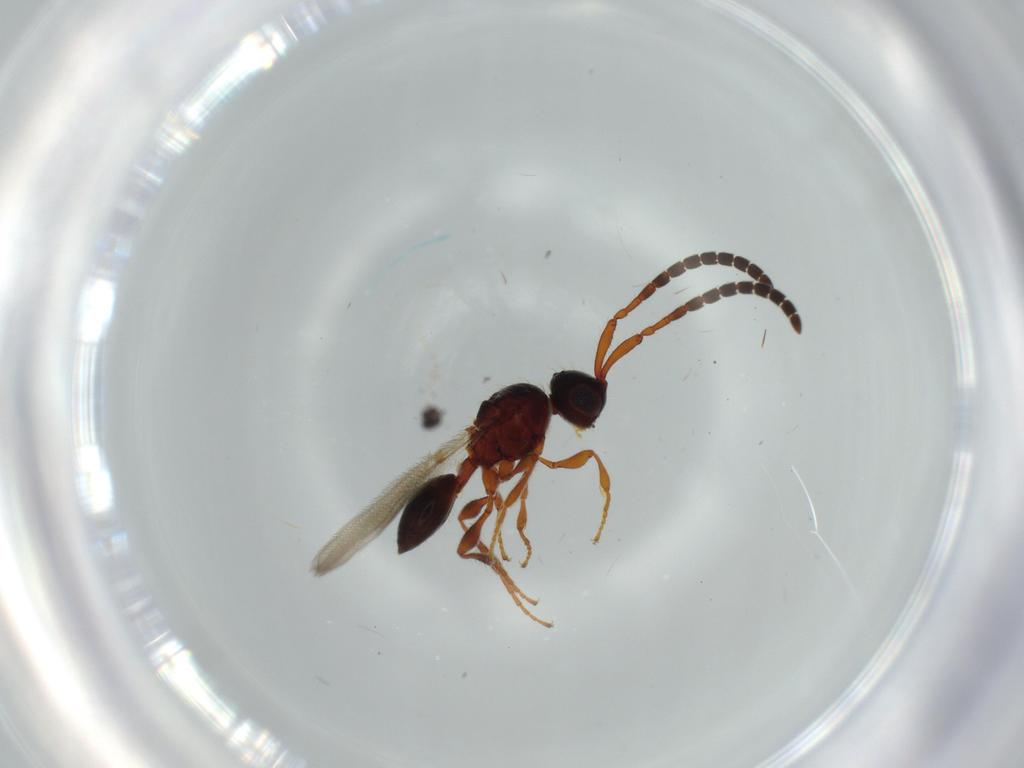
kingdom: Animalia
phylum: Arthropoda
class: Insecta
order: Hymenoptera
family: Diapriidae
